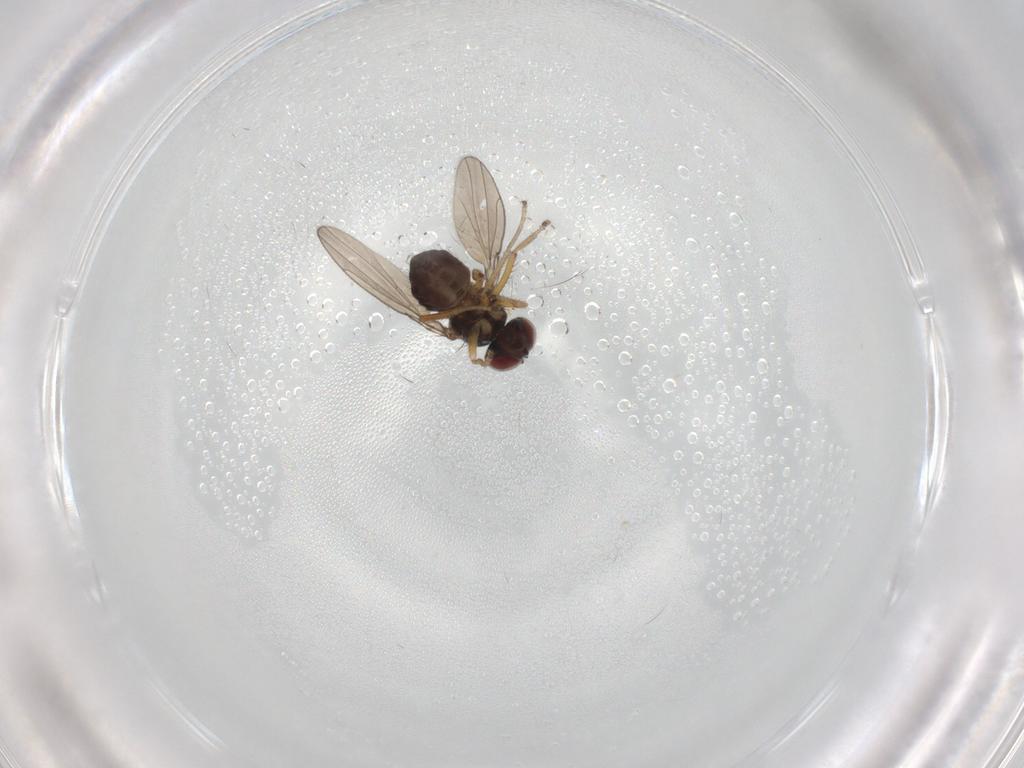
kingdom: Animalia
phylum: Arthropoda
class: Insecta
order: Diptera
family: Ephydridae
